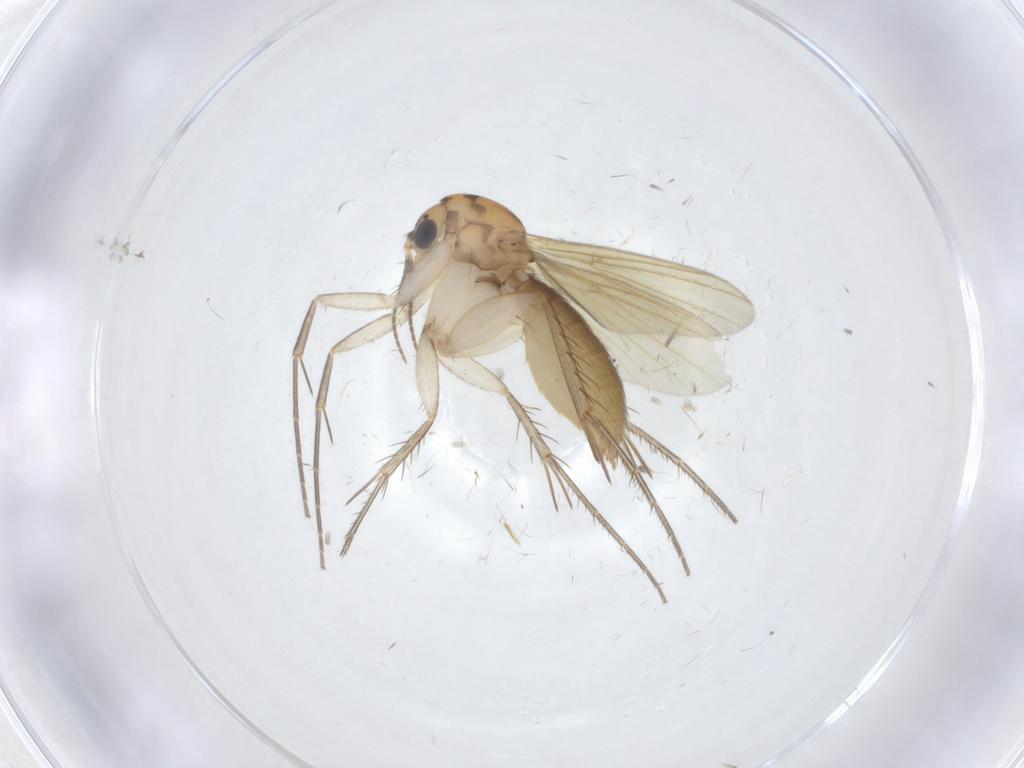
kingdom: Animalia
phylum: Arthropoda
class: Insecta
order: Diptera
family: Mycetophilidae
